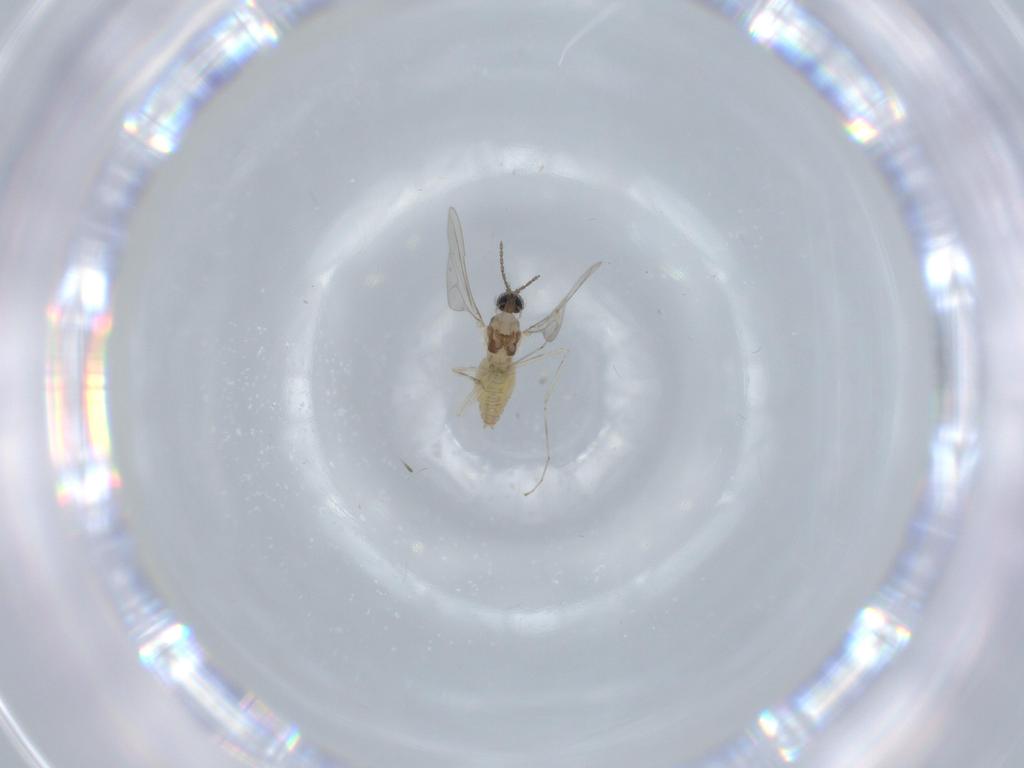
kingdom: Animalia
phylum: Arthropoda
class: Insecta
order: Diptera
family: Cecidomyiidae
